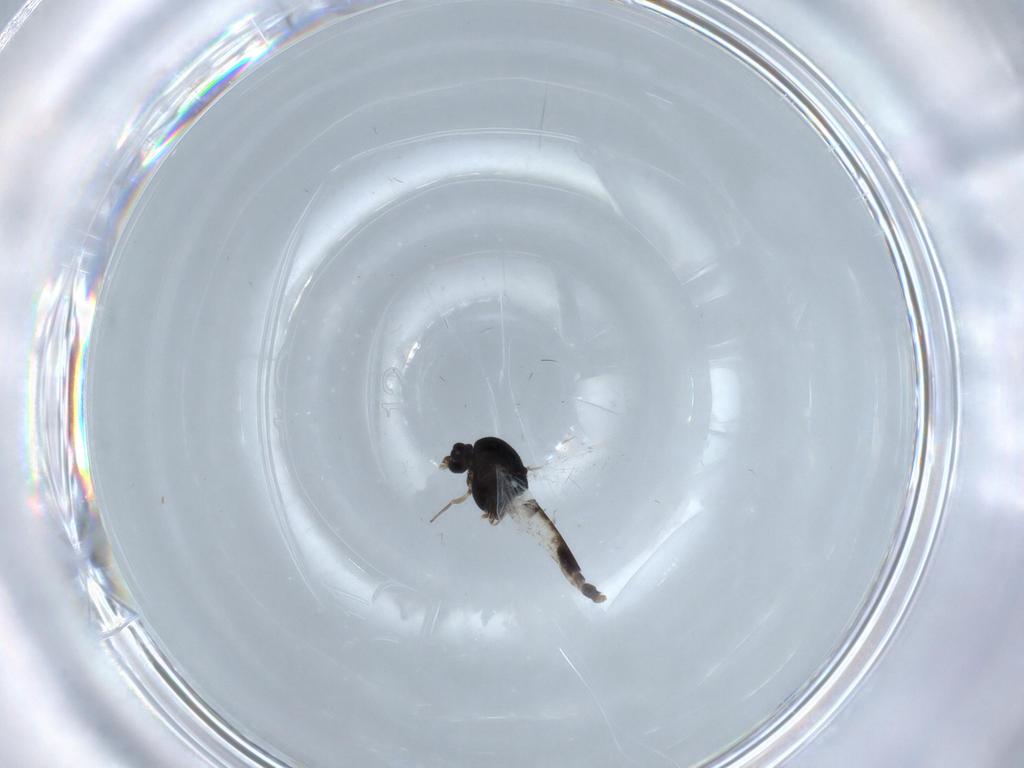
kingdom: Animalia
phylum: Arthropoda
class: Insecta
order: Diptera
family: Chironomidae
